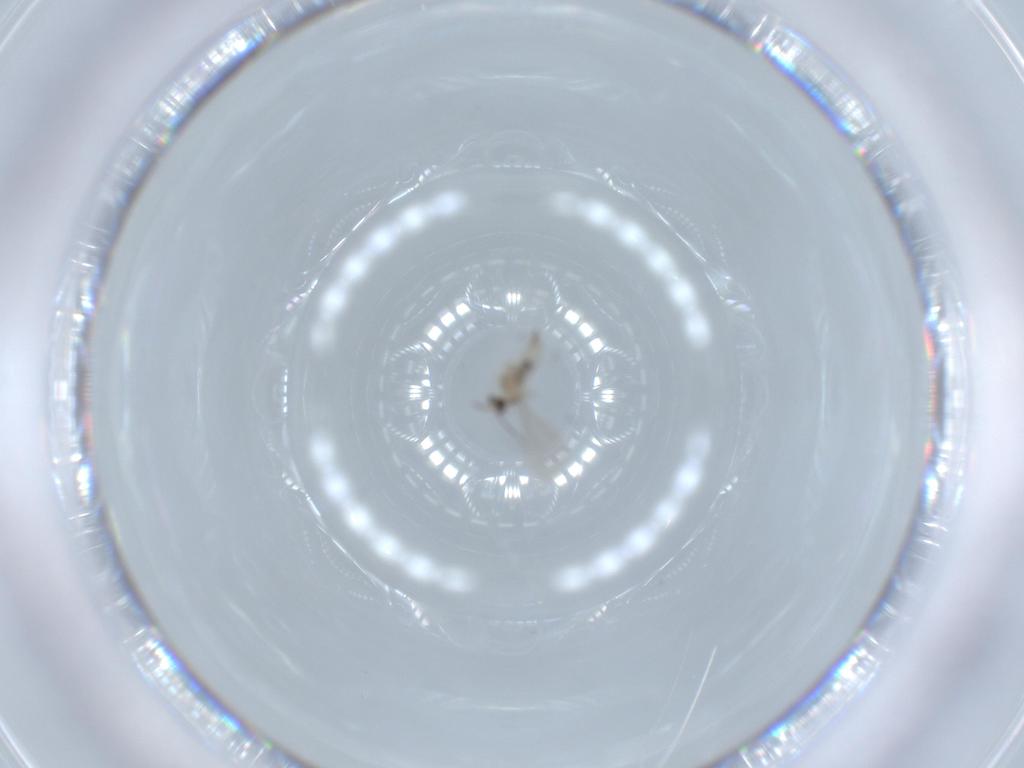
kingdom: Animalia
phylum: Arthropoda
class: Insecta
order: Diptera
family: Cecidomyiidae
